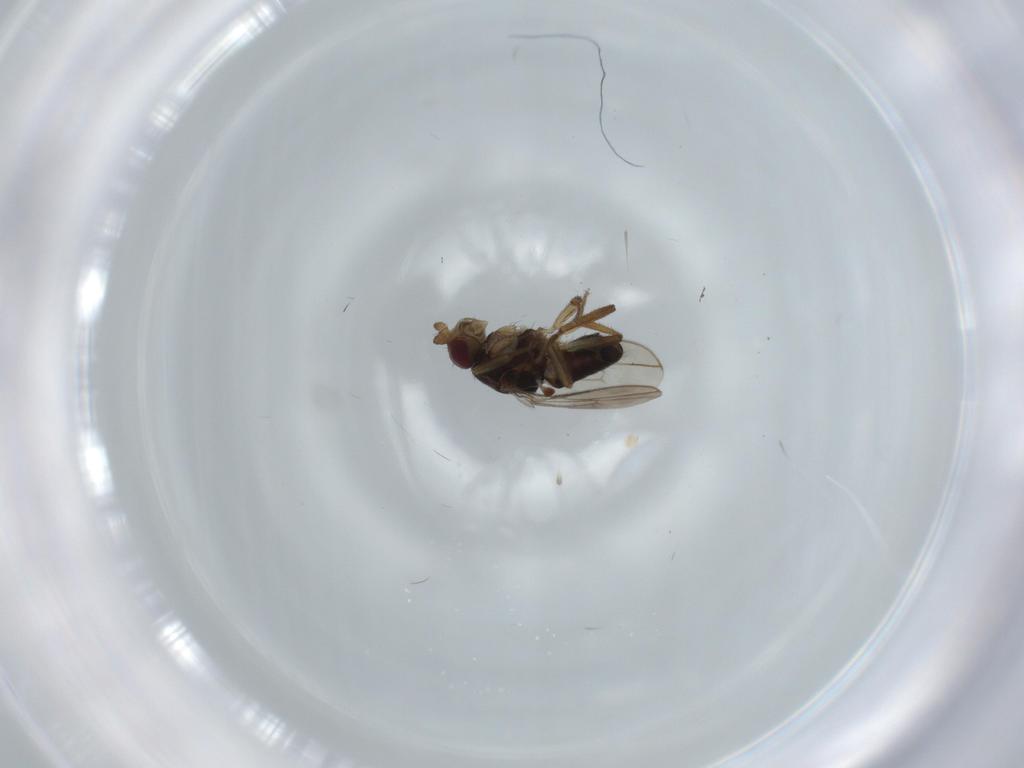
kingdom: Animalia
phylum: Arthropoda
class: Insecta
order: Diptera
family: Sphaeroceridae
